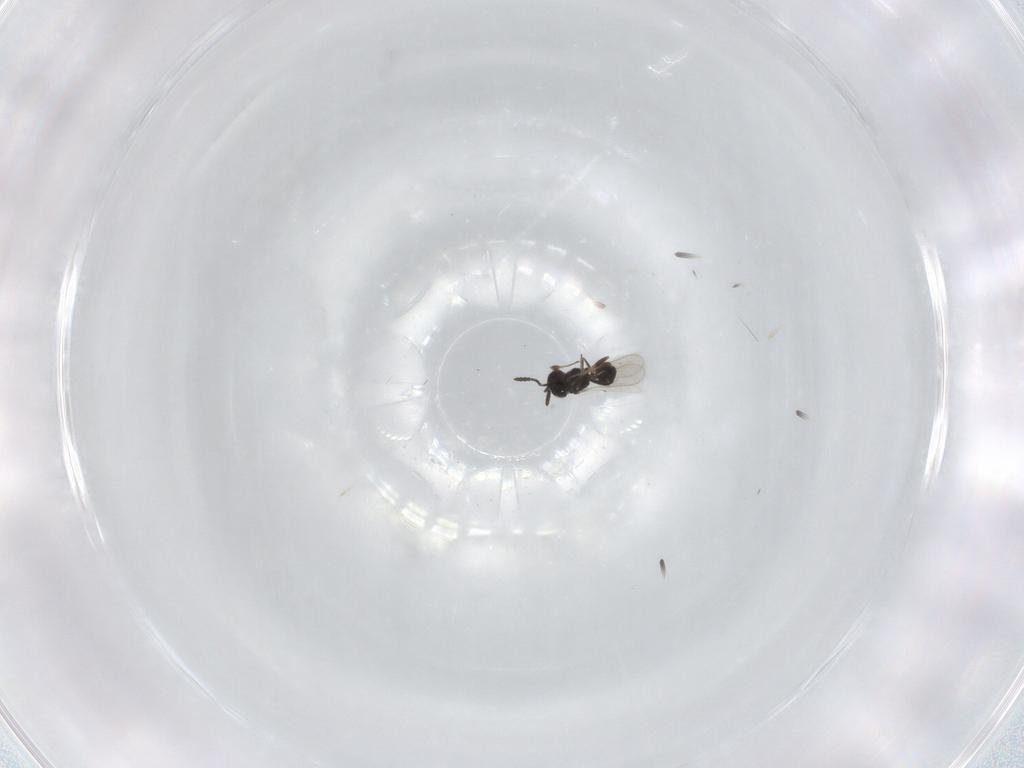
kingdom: Animalia
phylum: Arthropoda
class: Insecta
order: Hymenoptera
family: Scelionidae
